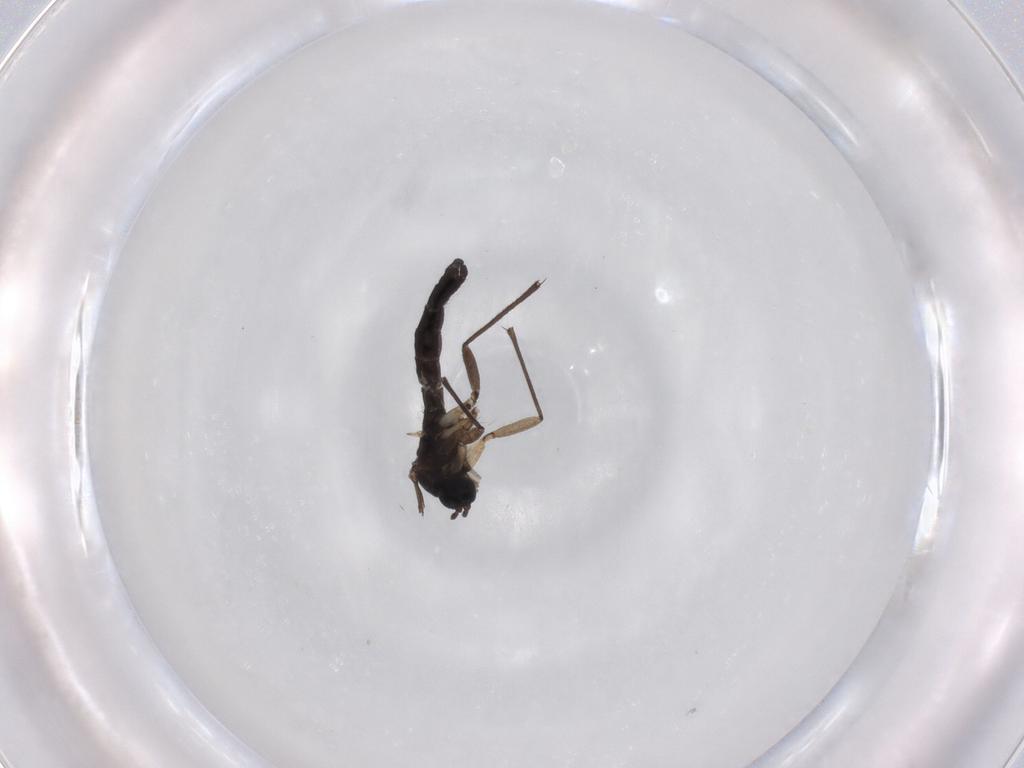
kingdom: Animalia
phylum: Arthropoda
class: Insecta
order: Diptera
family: Sciaridae
